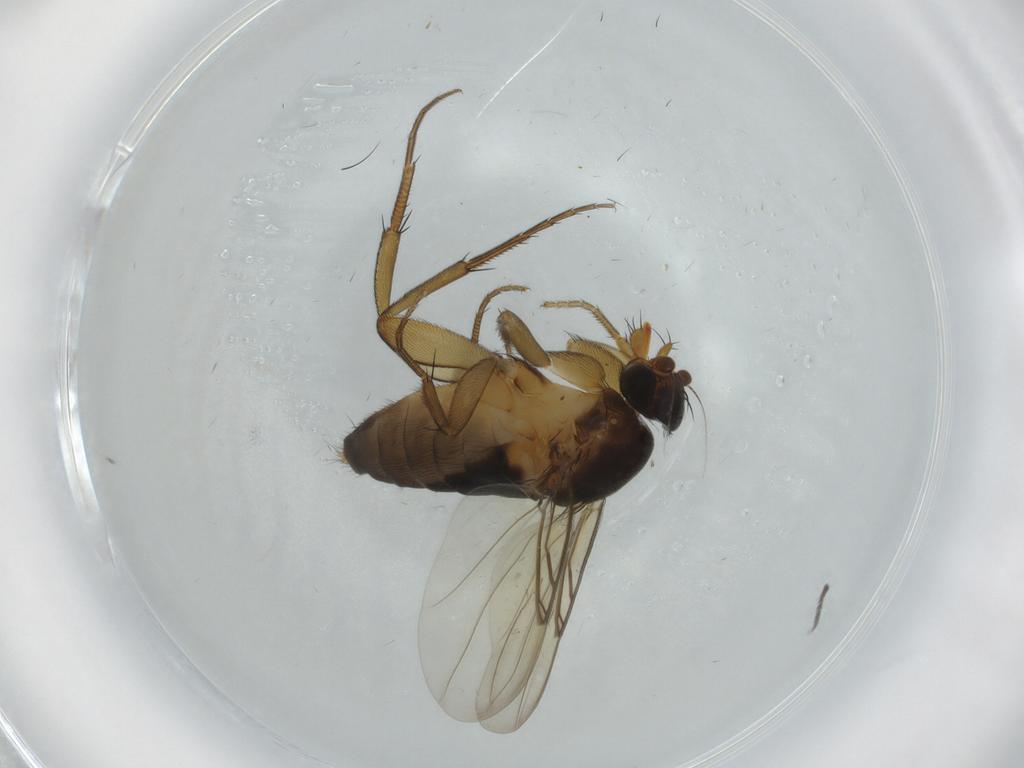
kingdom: Animalia
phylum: Arthropoda
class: Insecta
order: Diptera
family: Sciaridae
